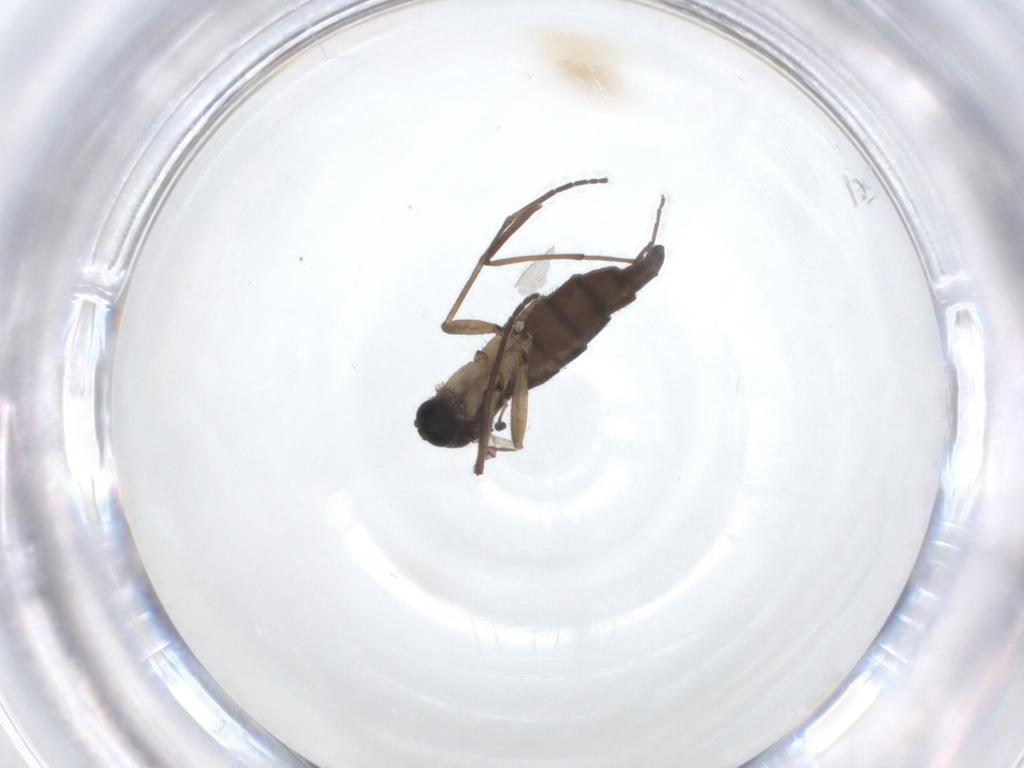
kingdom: Animalia
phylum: Arthropoda
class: Insecta
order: Diptera
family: Sciaridae
